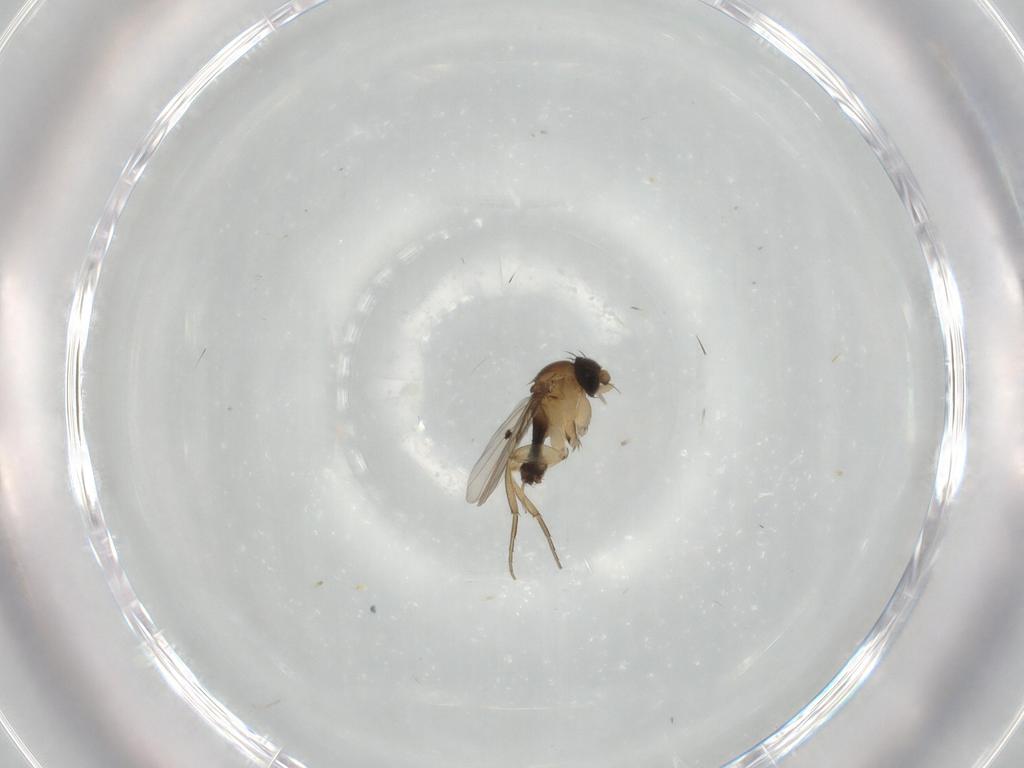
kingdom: Animalia
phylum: Arthropoda
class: Insecta
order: Diptera
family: Phoridae
